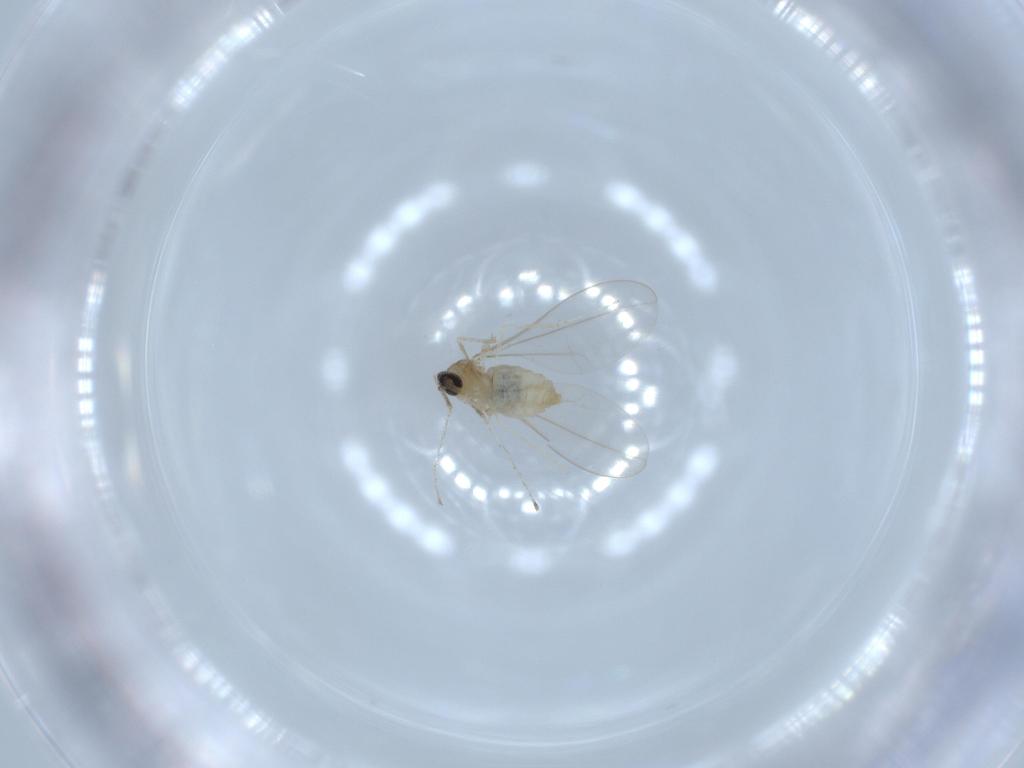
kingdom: Animalia
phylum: Arthropoda
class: Insecta
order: Diptera
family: Cecidomyiidae
